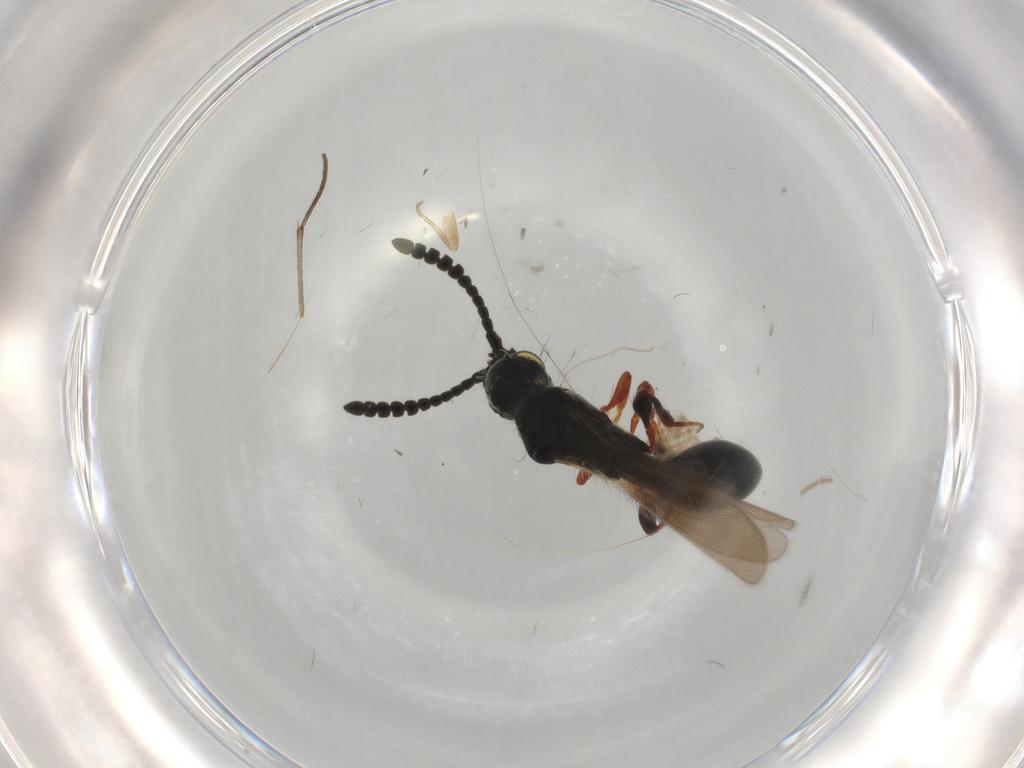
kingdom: Animalia
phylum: Arthropoda
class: Insecta
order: Hymenoptera
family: Diapriidae
